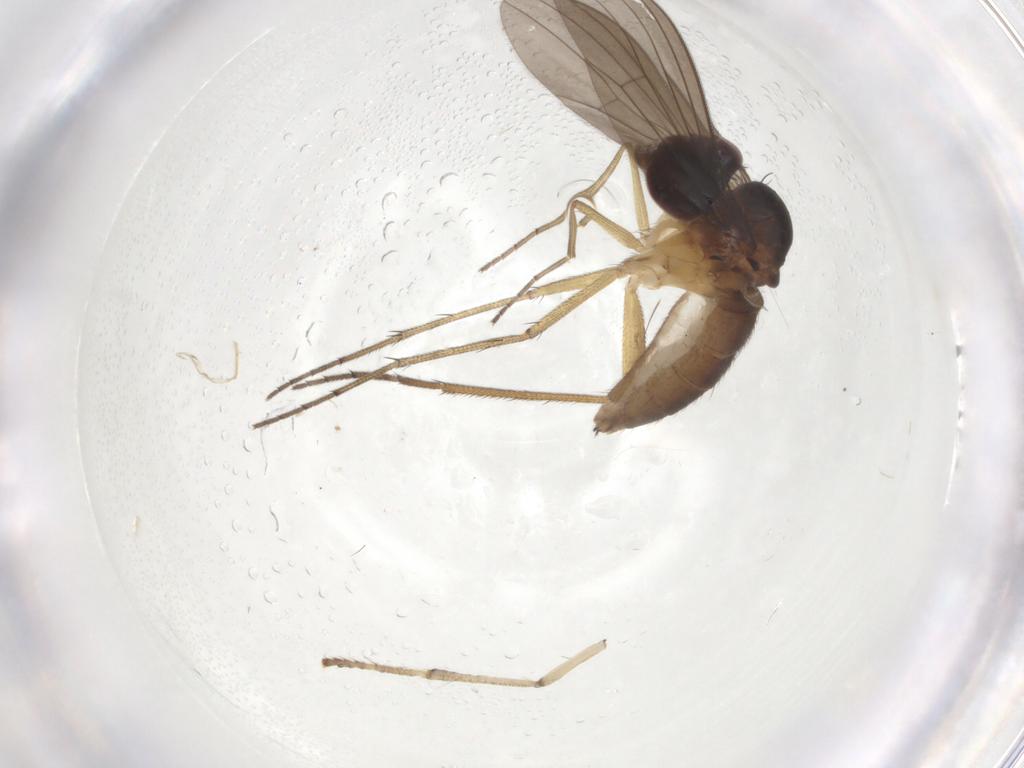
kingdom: Animalia
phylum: Arthropoda
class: Insecta
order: Diptera
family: Dolichopodidae
